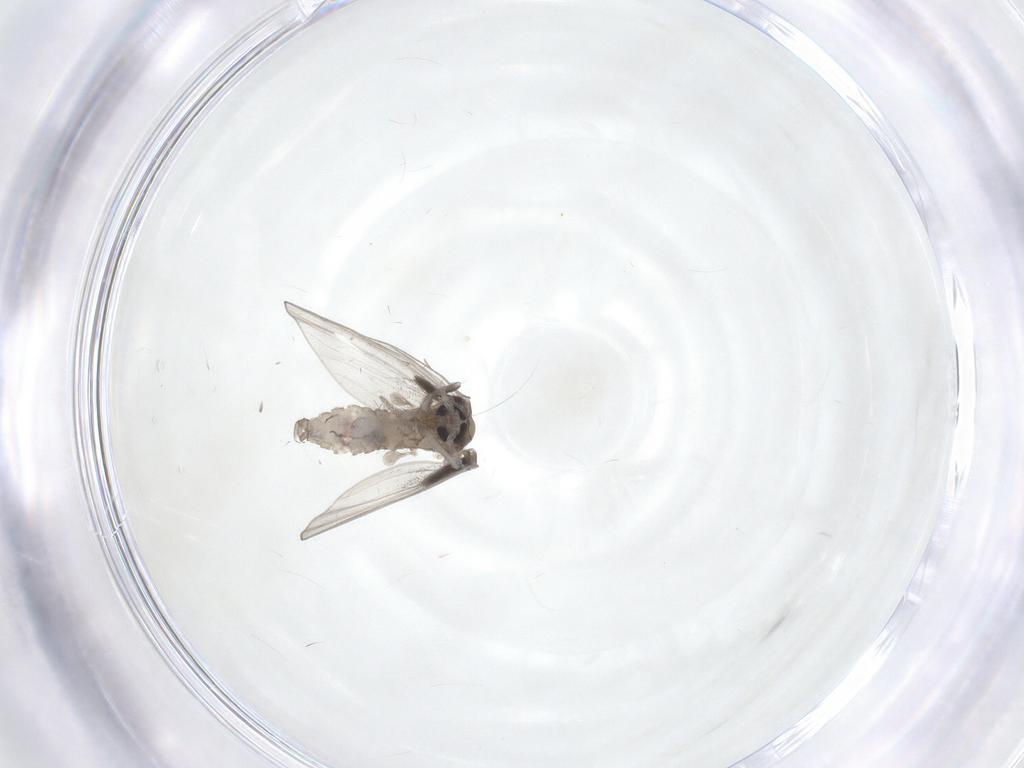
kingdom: Animalia
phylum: Arthropoda
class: Insecta
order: Diptera
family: Psychodidae
